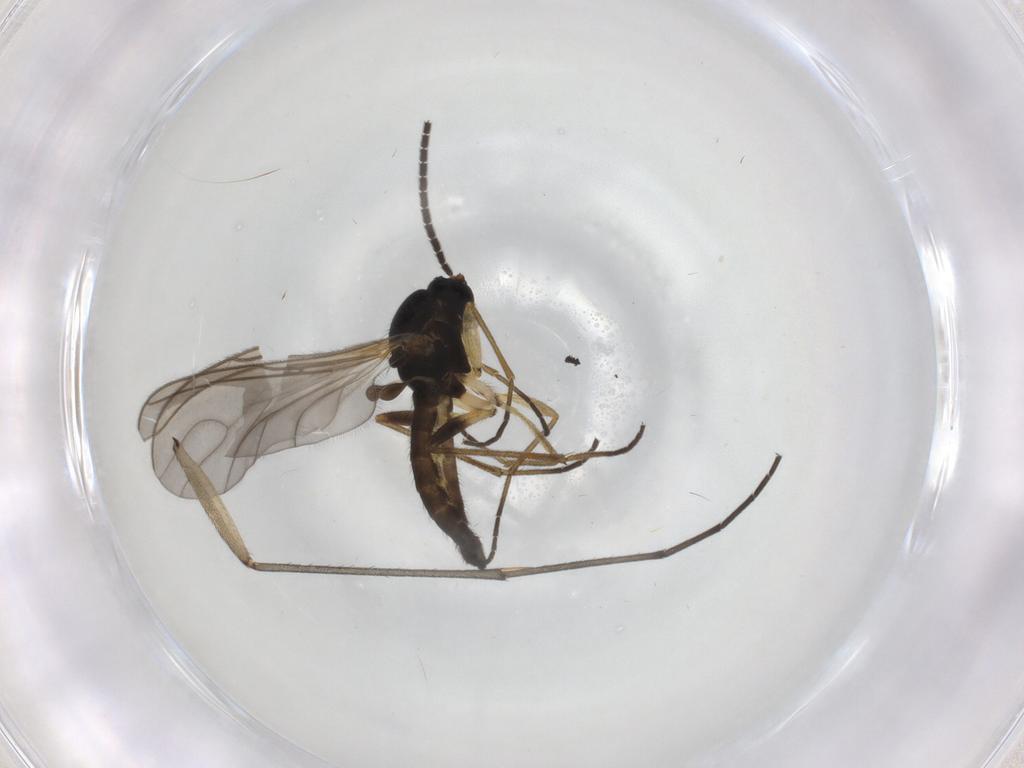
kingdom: Animalia
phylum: Arthropoda
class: Insecta
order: Diptera
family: Sciaridae
